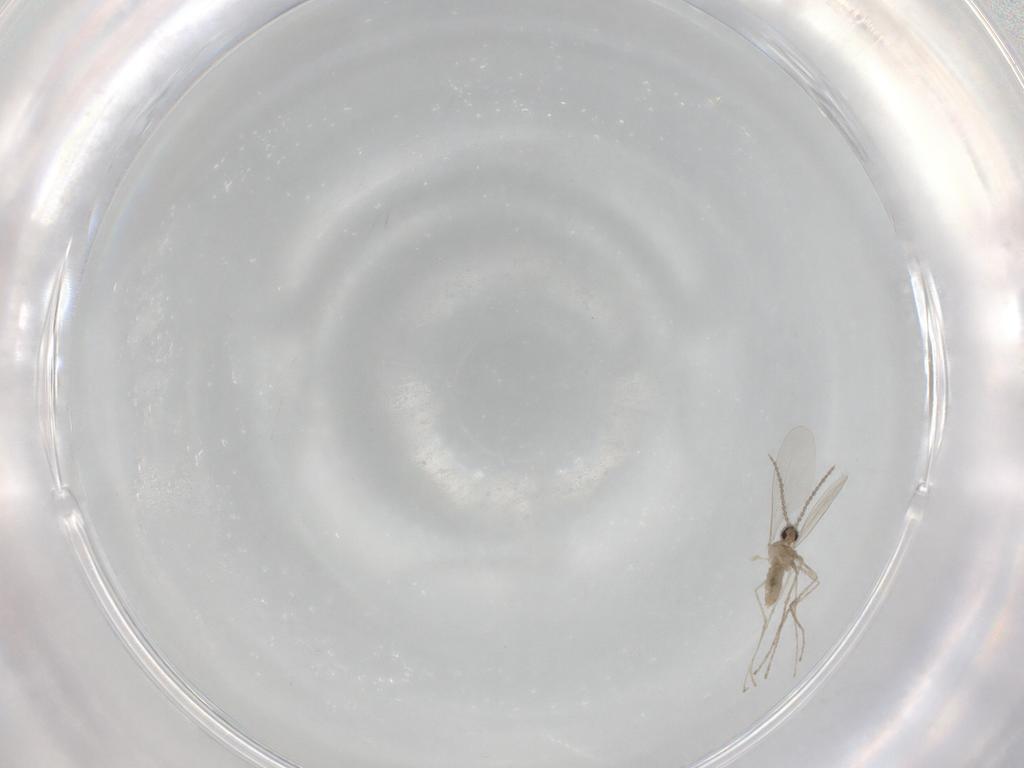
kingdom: Animalia
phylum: Arthropoda
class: Insecta
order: Diptera
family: Cecidomyiidae
